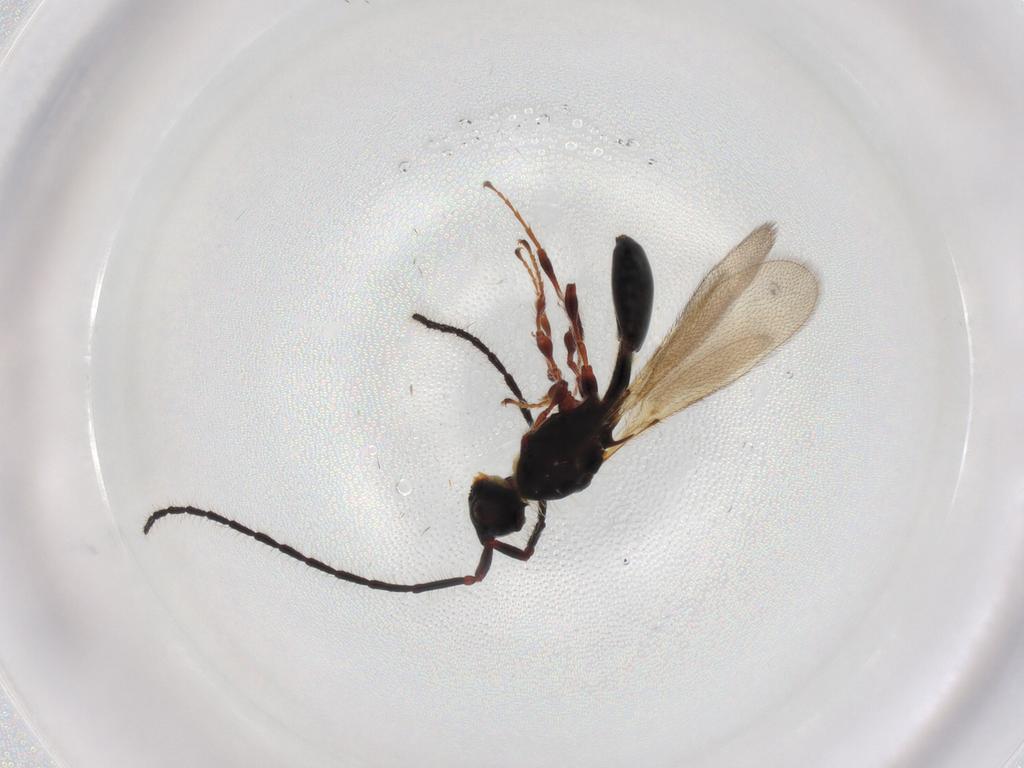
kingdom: Animalia
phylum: Arthropoda
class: Insecta
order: Hymenoptera
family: Diapriidae
